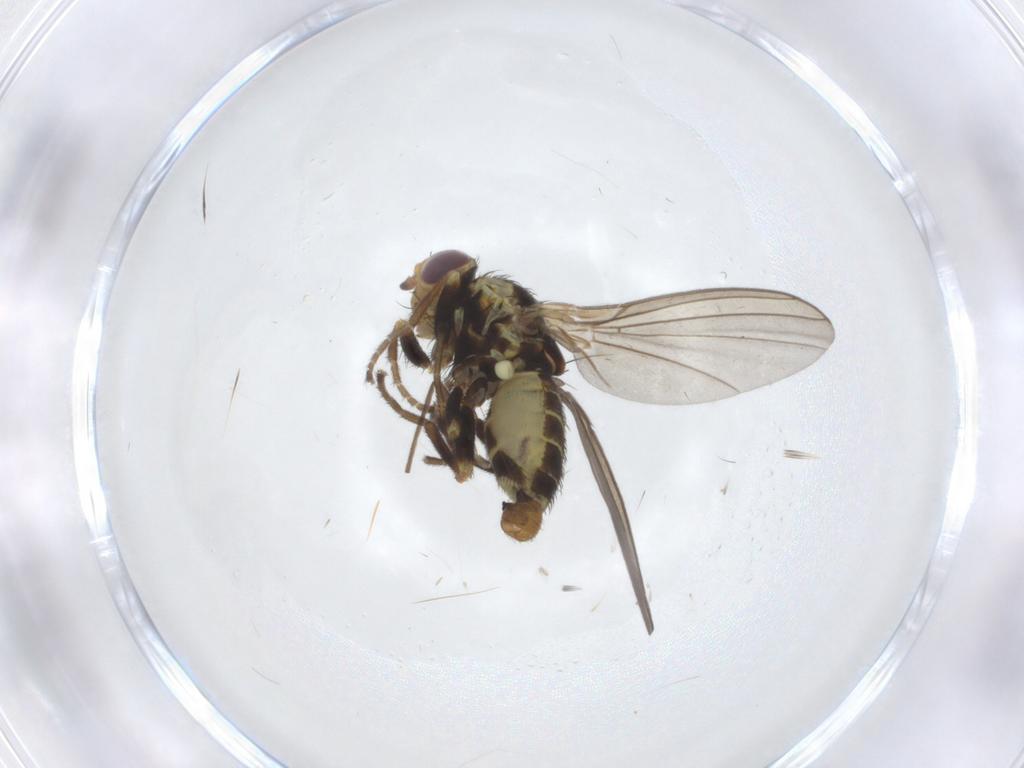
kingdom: Animalia
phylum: Arthropoda
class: Insecta
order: Diptera
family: Agromyzidae
